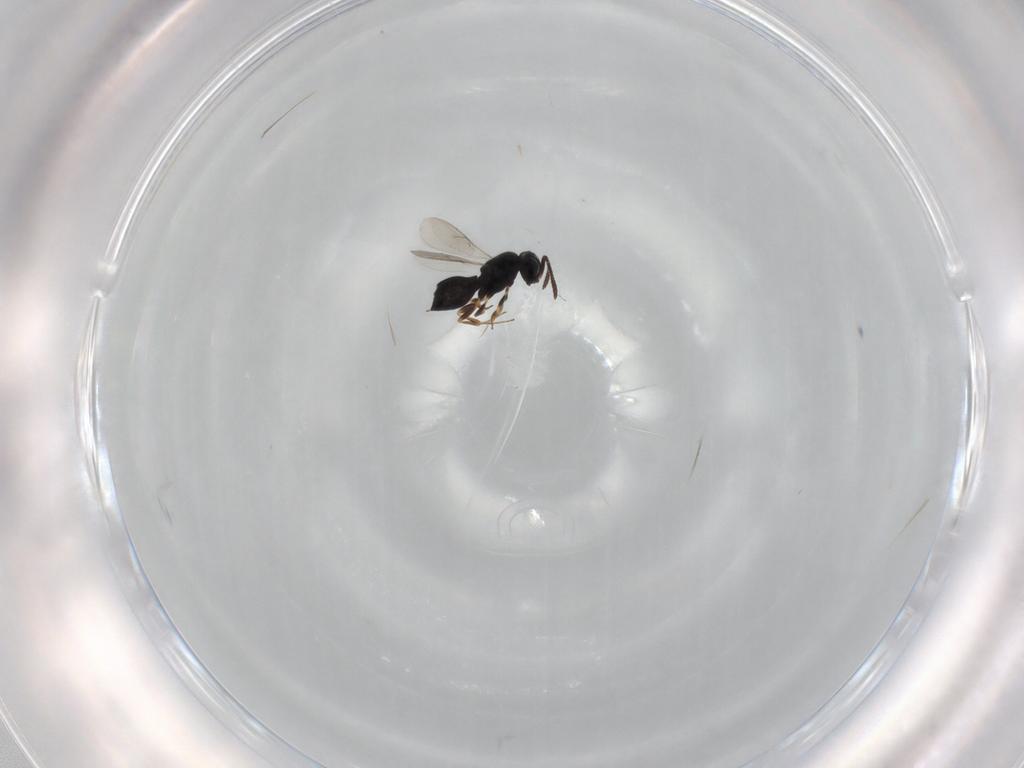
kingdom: Animalia
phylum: Arthropoda
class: Insecta
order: Hymenoptera
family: Scelionidae
